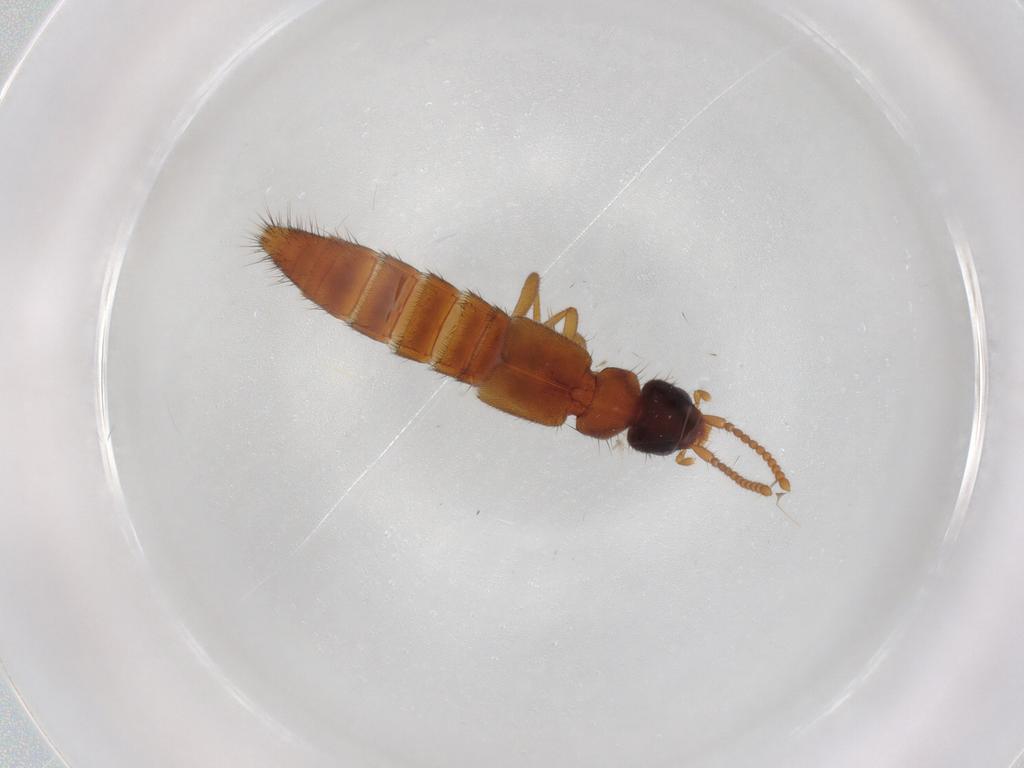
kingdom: Animalia
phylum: Arthropoda
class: Insecta
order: Coleoptera
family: Staphylinidae
